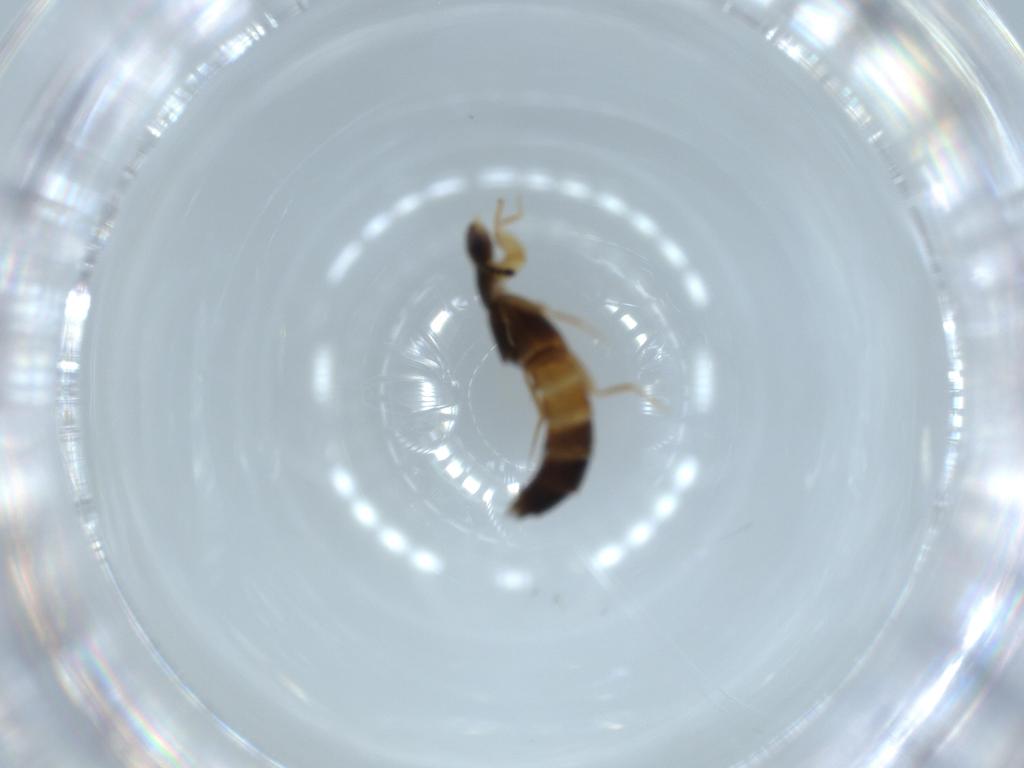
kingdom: Animalia
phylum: Arthropoda
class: Insecta
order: Coleoptera
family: Staphylinidae
